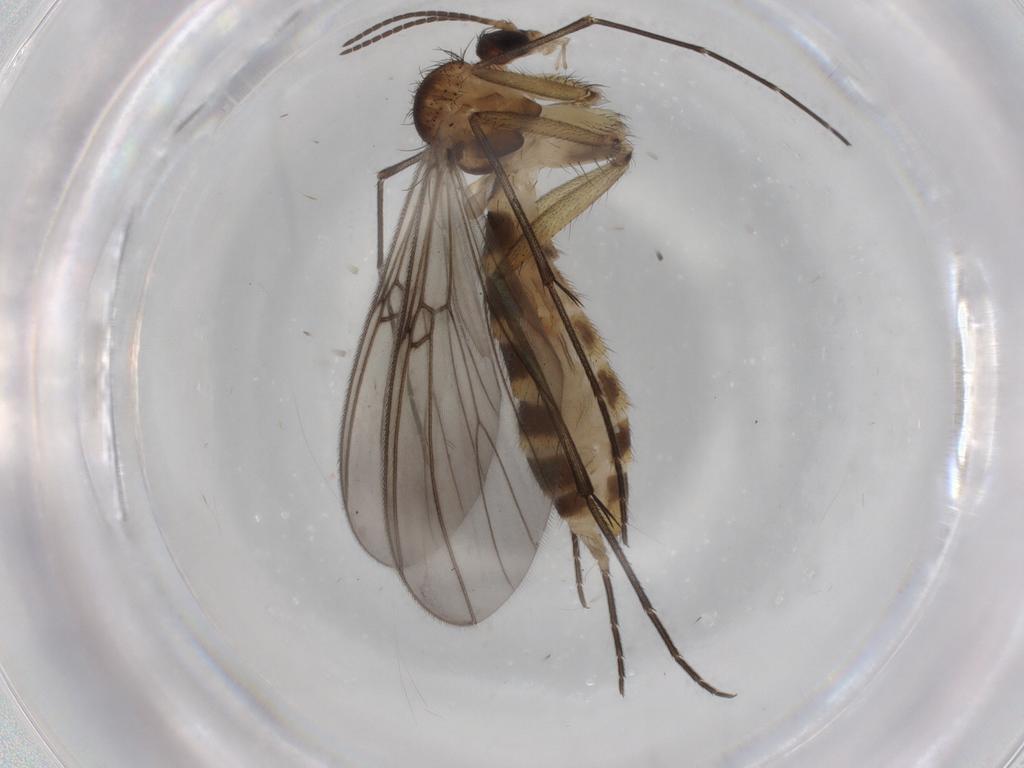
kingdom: Animalia
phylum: Arthropoda
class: Insecta
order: Diptera
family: Mycetophilidae
